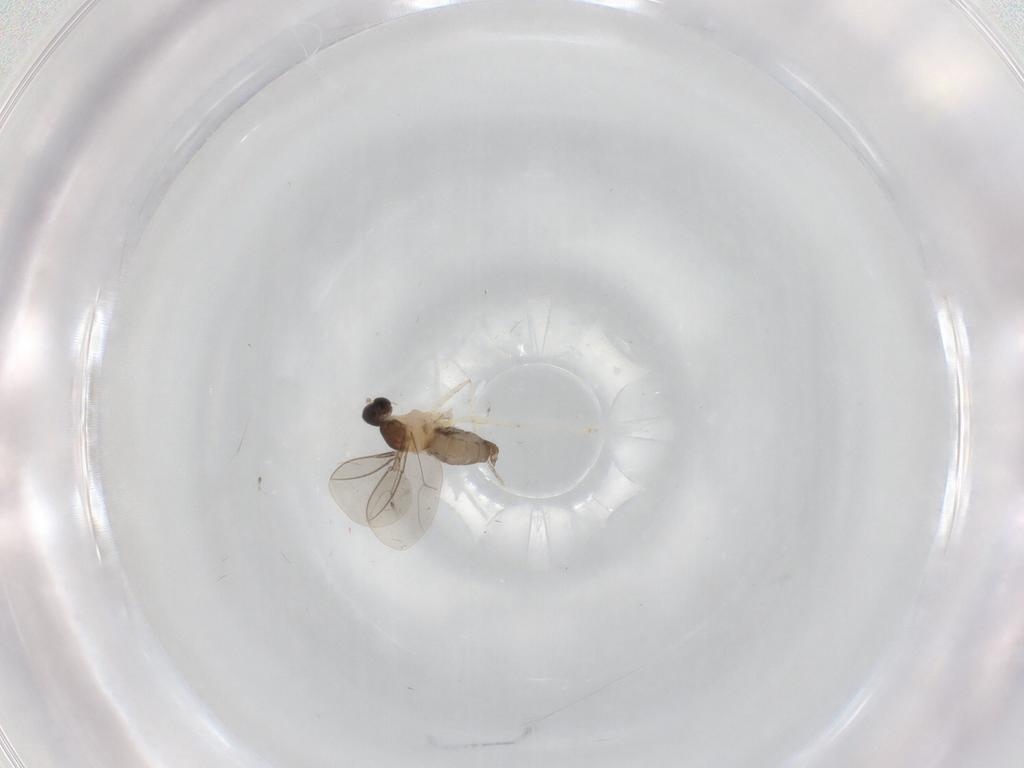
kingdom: Animalia
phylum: Arthropoda
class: Insecta
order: Diptera
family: Cecidomyiidae
